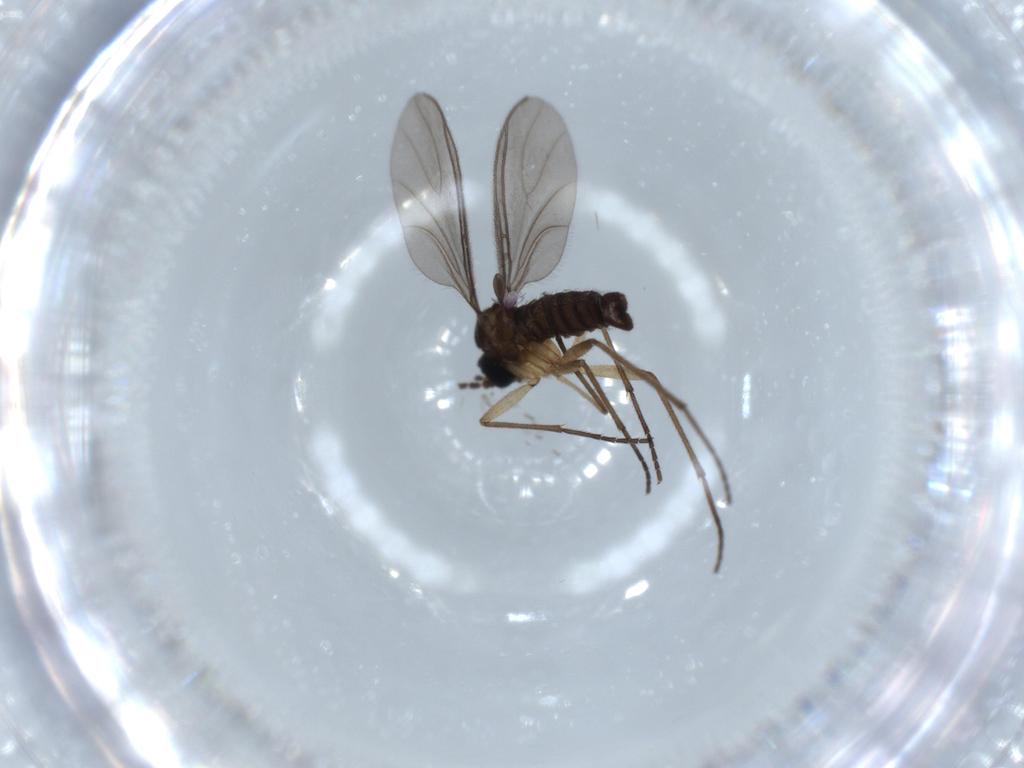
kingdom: Animalia
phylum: Arthropoda
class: Insecta
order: Diptera
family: Sciaridae
